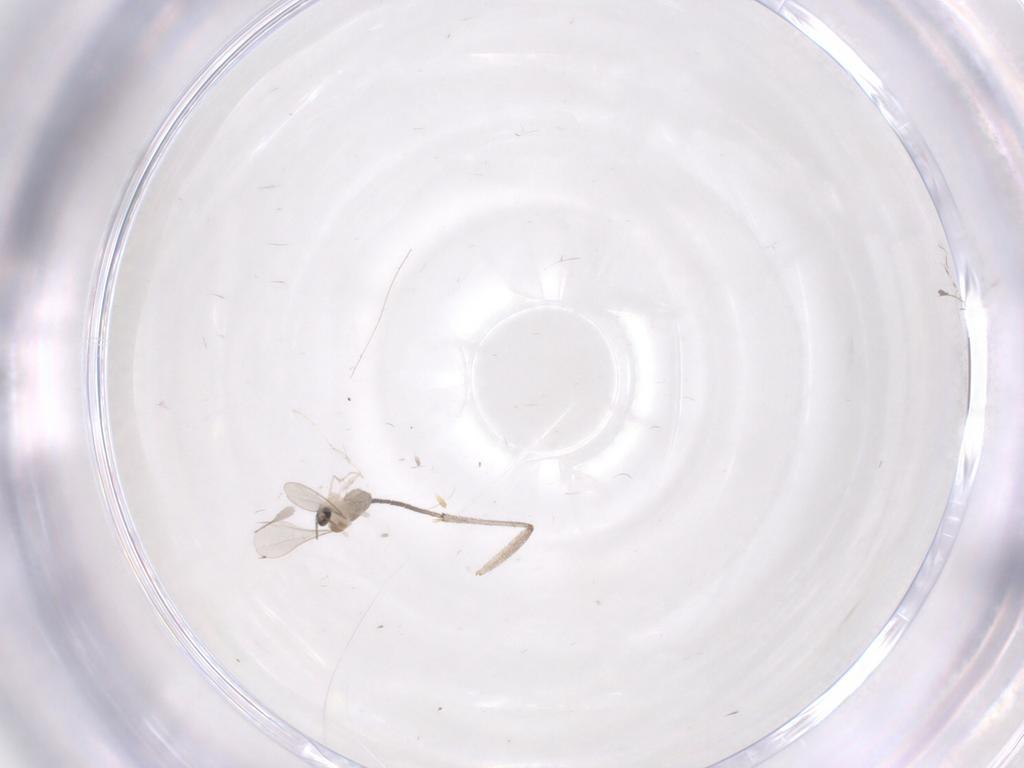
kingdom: Animalia
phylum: Arthropoda
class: Insecta
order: Diptera
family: Cecidomyiidae
